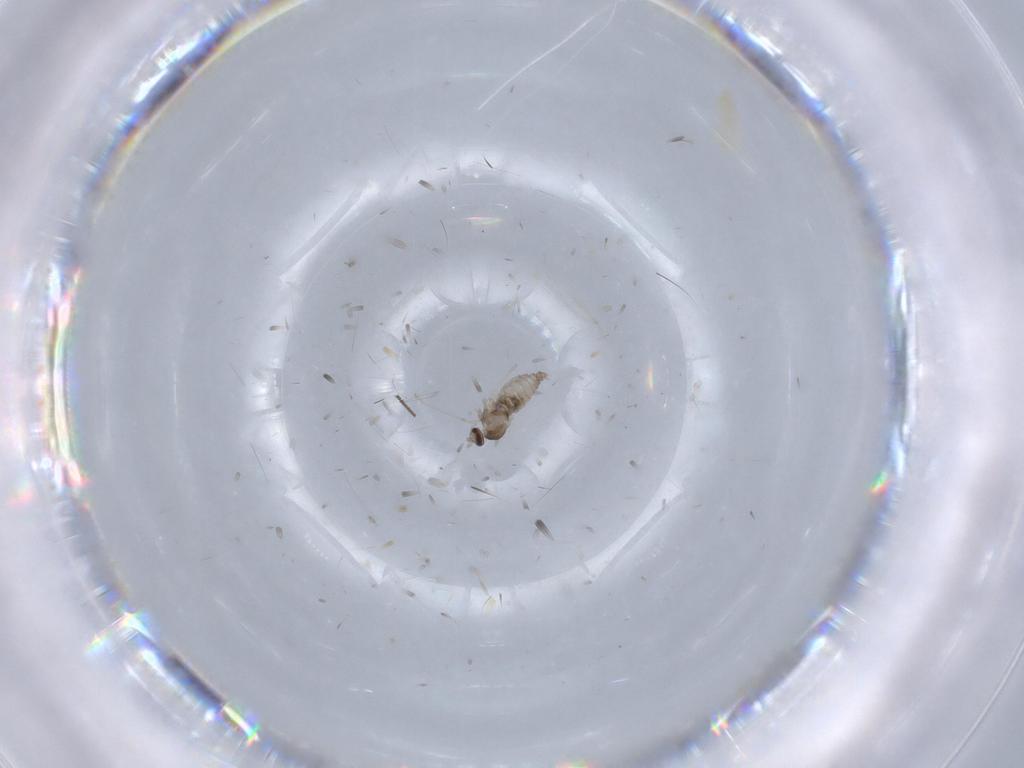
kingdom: Animalia
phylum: Arthropoda
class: Insecta
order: Diptera
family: Cecidomyiidae
